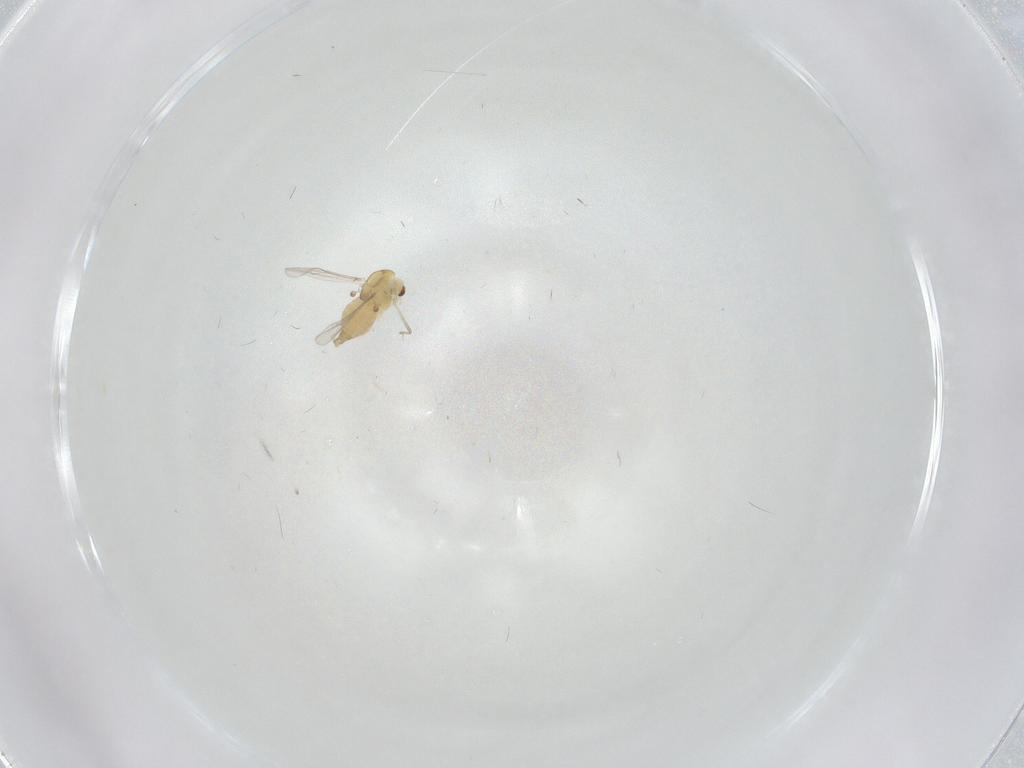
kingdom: Animalia
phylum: Arthropoda
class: Insecta
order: Diptera
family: Chironomidae
